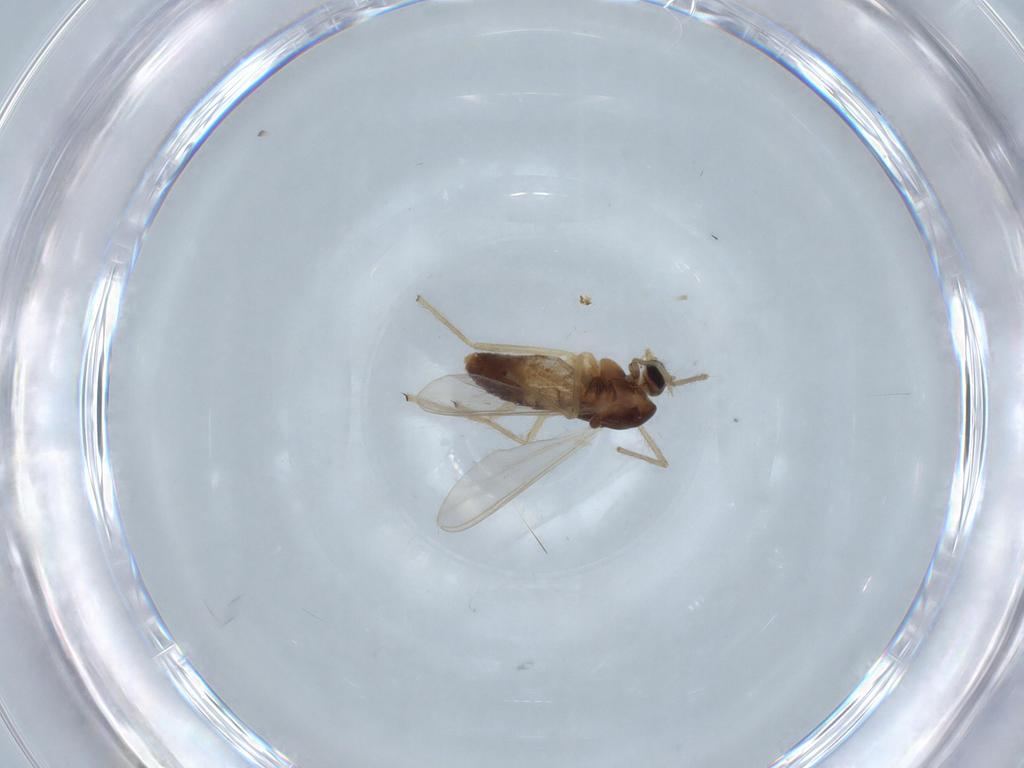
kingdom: Animalia
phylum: Arthropoda
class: Insecta
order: Diptera
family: Chironomidae
